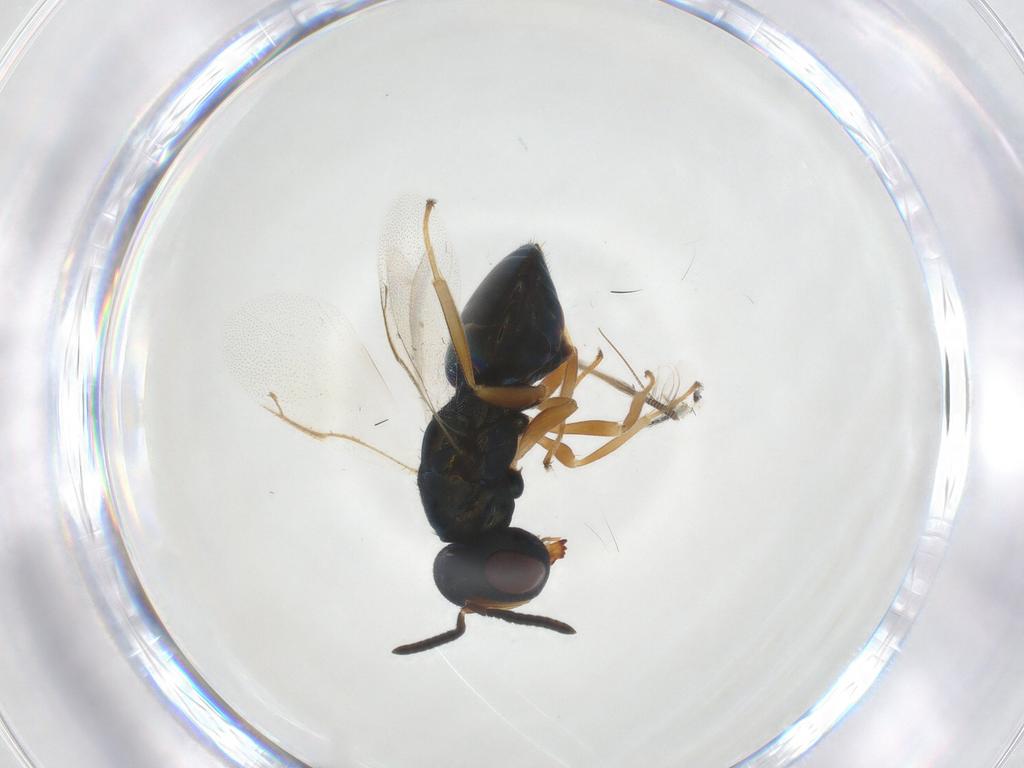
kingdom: Animalia
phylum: Arthropoda
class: Insecta
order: Hymenoptera
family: Pteromalidae
